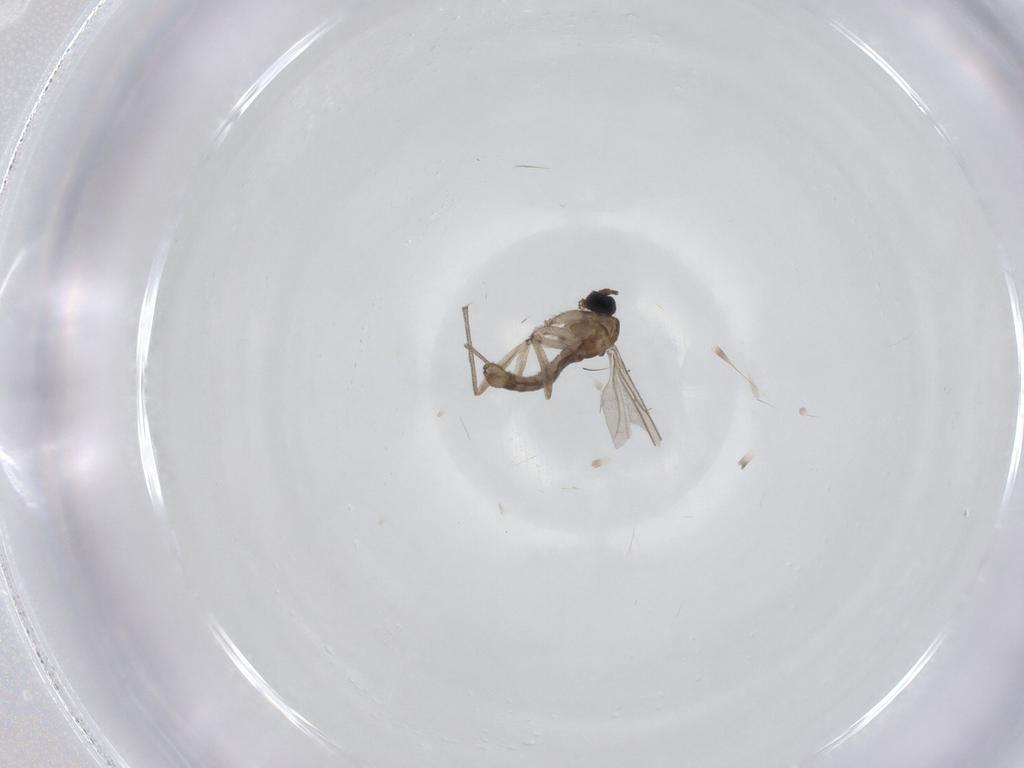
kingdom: Animalia
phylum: Arthropoda
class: Insecta
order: Diptera
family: Sciaridae
